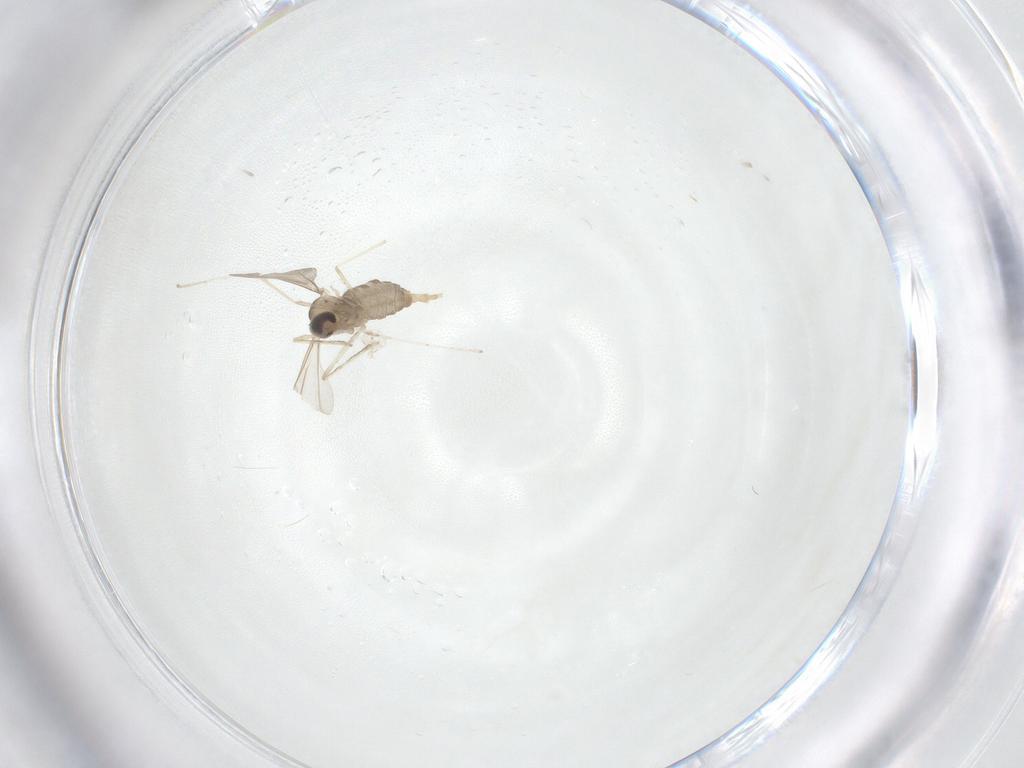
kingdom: Animalia
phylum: Arthropoda
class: Insecta
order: Diptera
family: Cecidomyiidae
